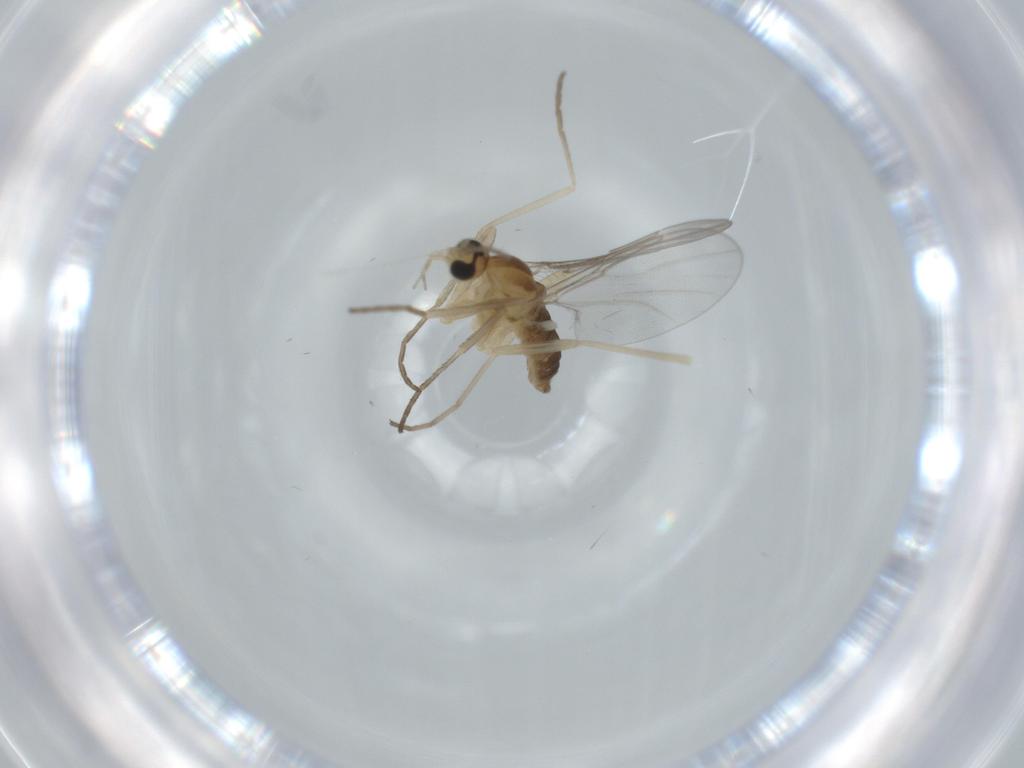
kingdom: Animalia
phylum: Arthropoda
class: Insecta
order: Diptera
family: Cecidomyiidae
